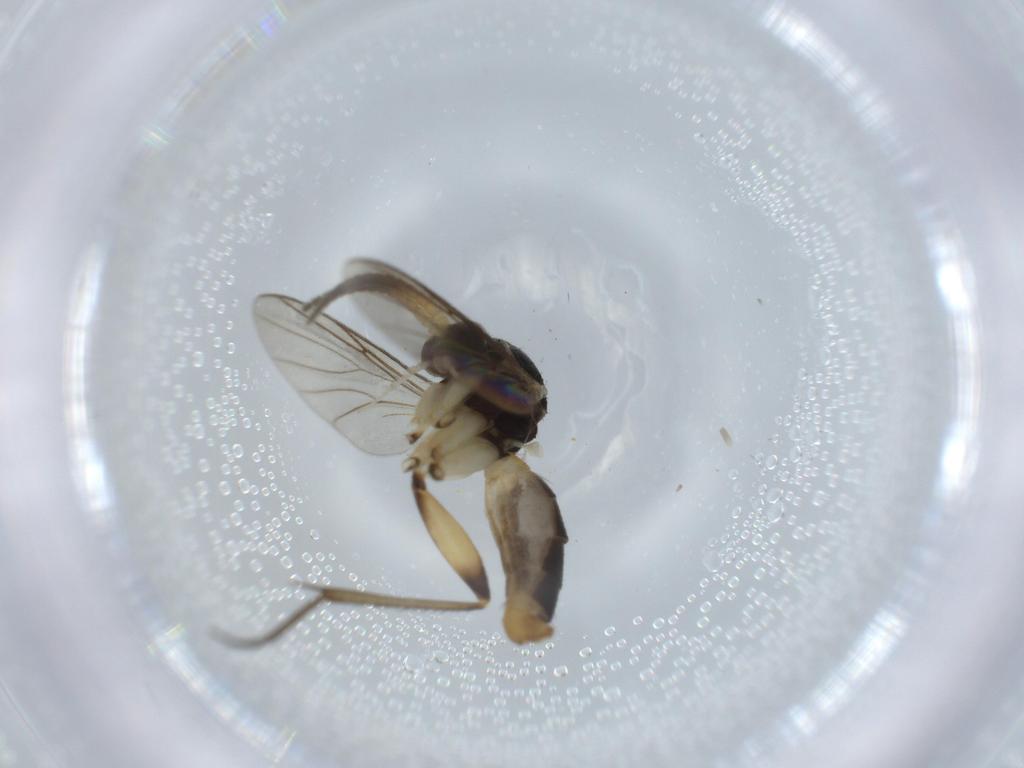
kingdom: Animalia
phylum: Arthropoda
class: Insecta
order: Diptera
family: Cecidomyiidae
